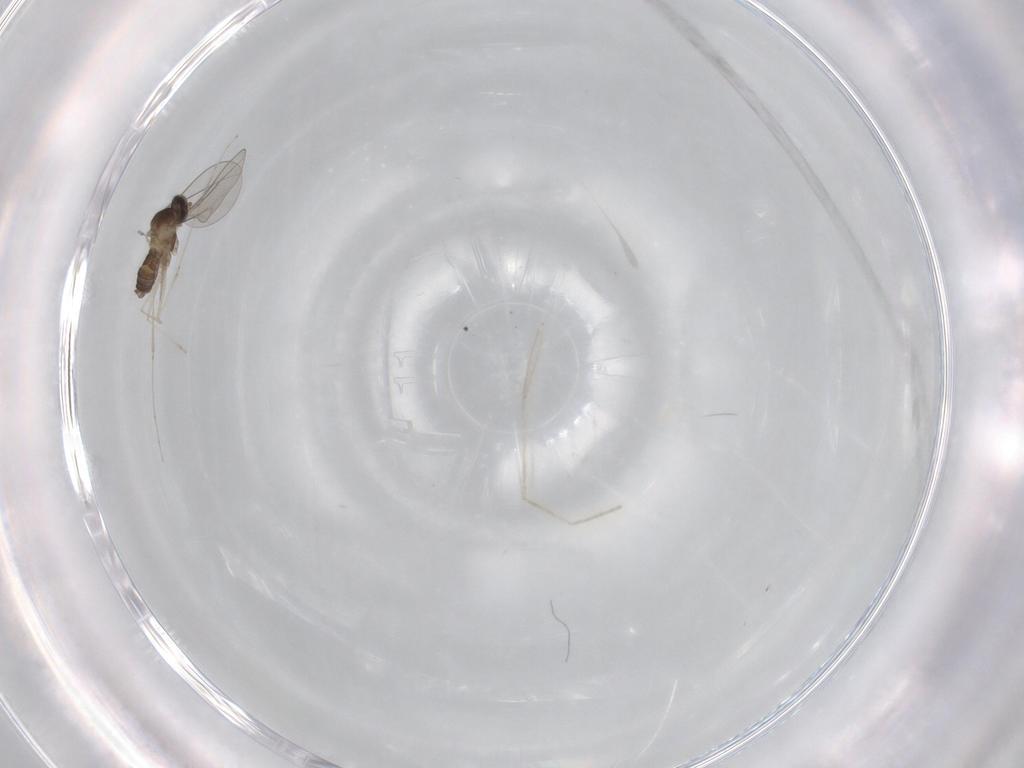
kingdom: Animalia
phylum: Arthropoda
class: Insecta
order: Diptera
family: Cecidomyiidae
